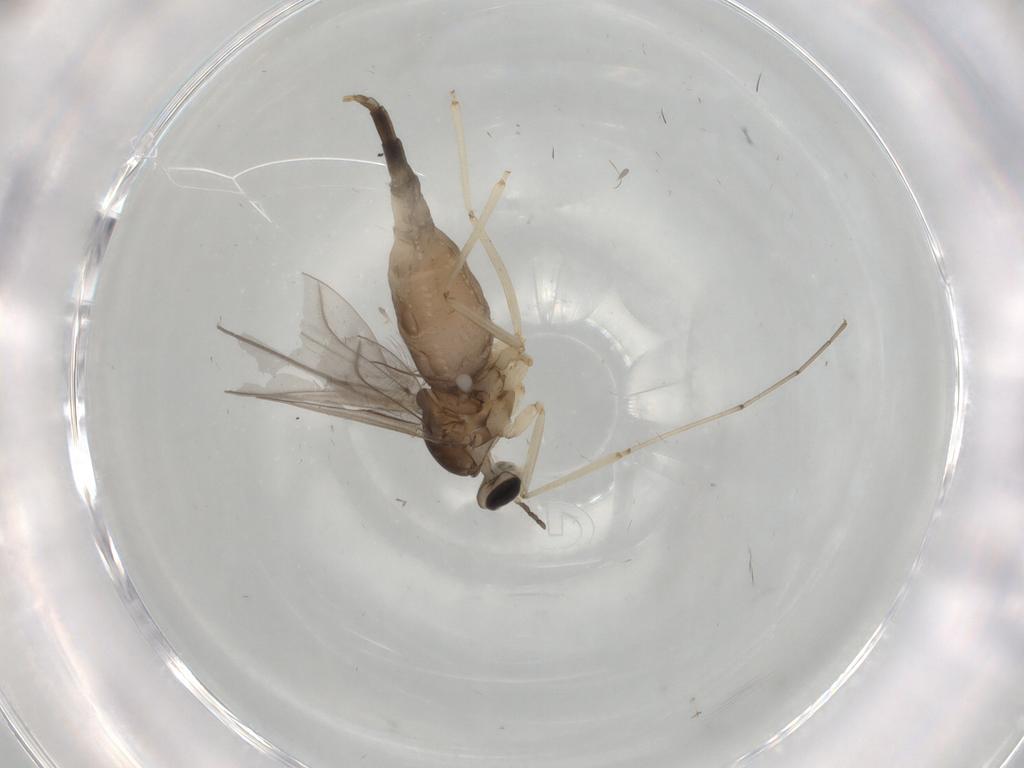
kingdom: Animalia
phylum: Arthropoda
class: Insecta
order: Diptera
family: Cecidomyiidae
